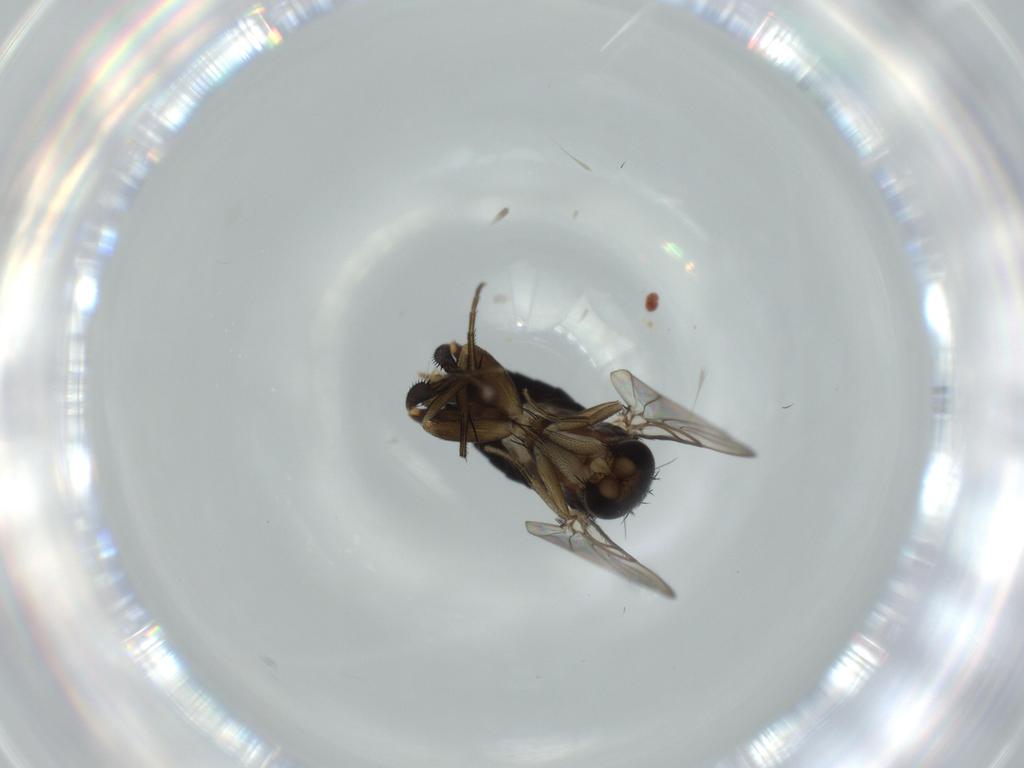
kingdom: Animalia
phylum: Arthropoda
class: Insecta
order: Diptera
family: Phoridae
